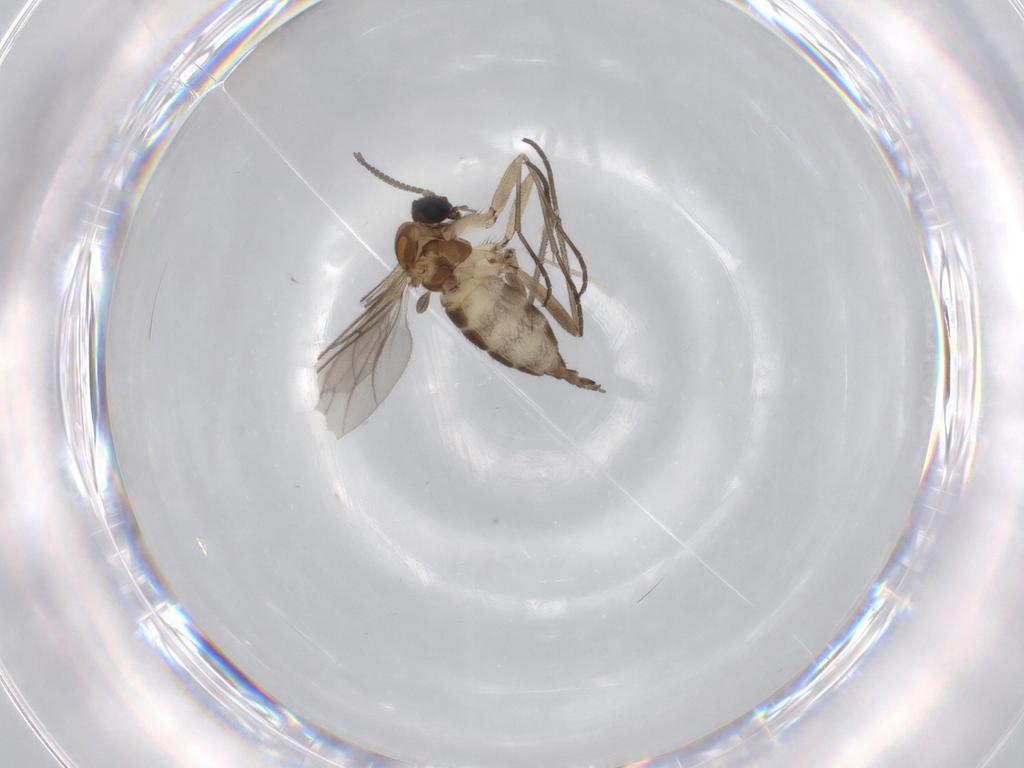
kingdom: Animalia
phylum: Arthropoda
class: Insecta
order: Diptera
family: Sciaridae
